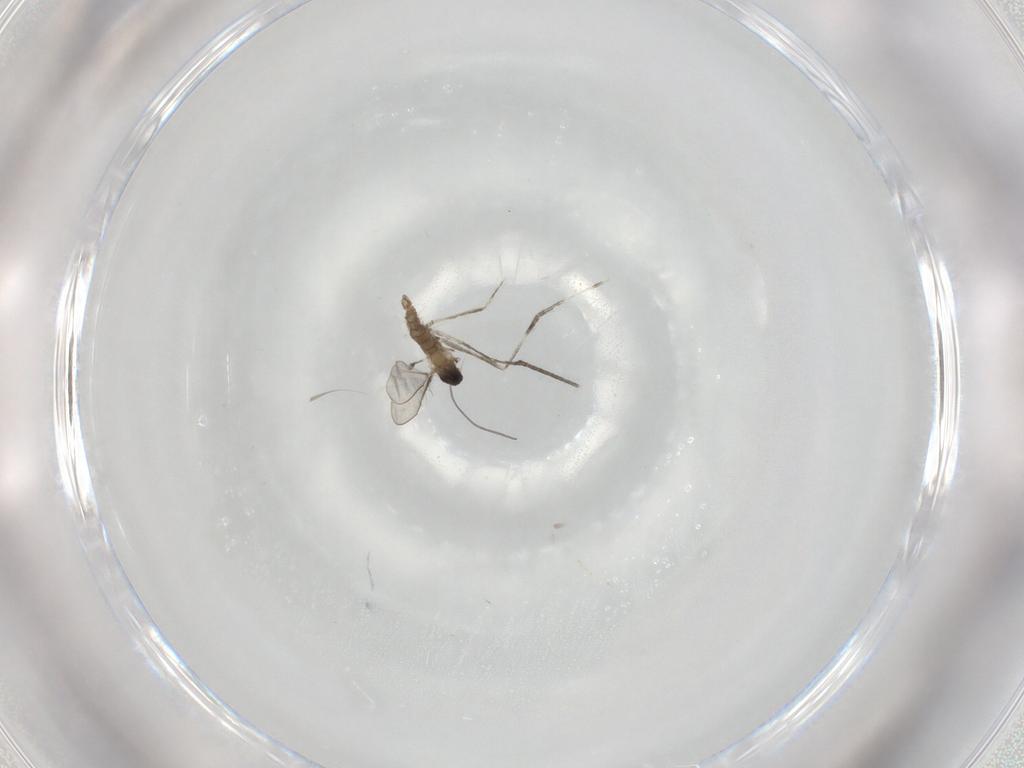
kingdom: Animalia
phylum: Arthropoda
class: Insecta
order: Diptera
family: Cecidomyiidae
